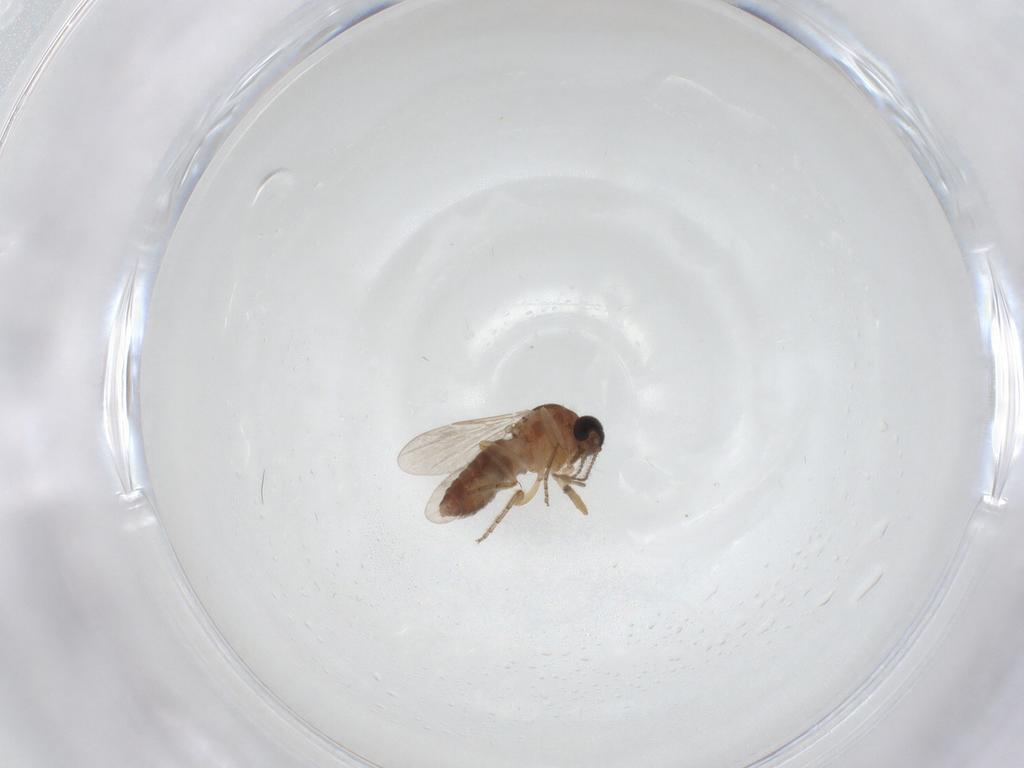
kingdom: Animalia
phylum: Arthropoda
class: Insecta
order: Diptera
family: Ceratopogonidae
